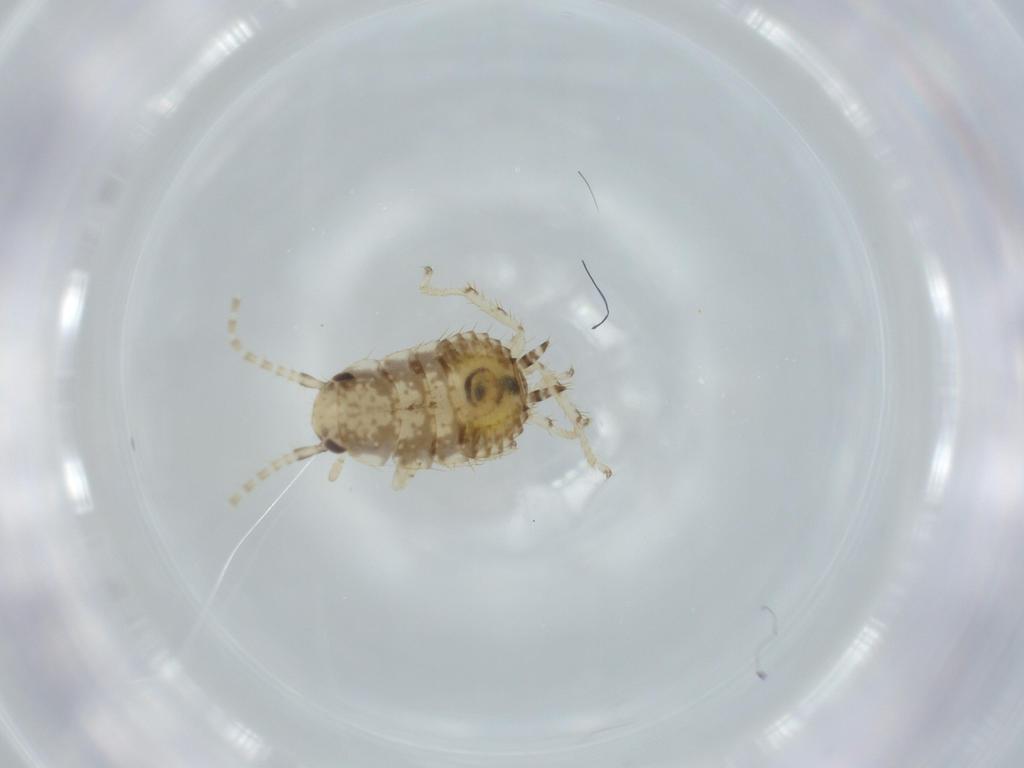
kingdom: Animalia
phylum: Arthropoda
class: Insecta
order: Blattodea
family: Ectobiidae
